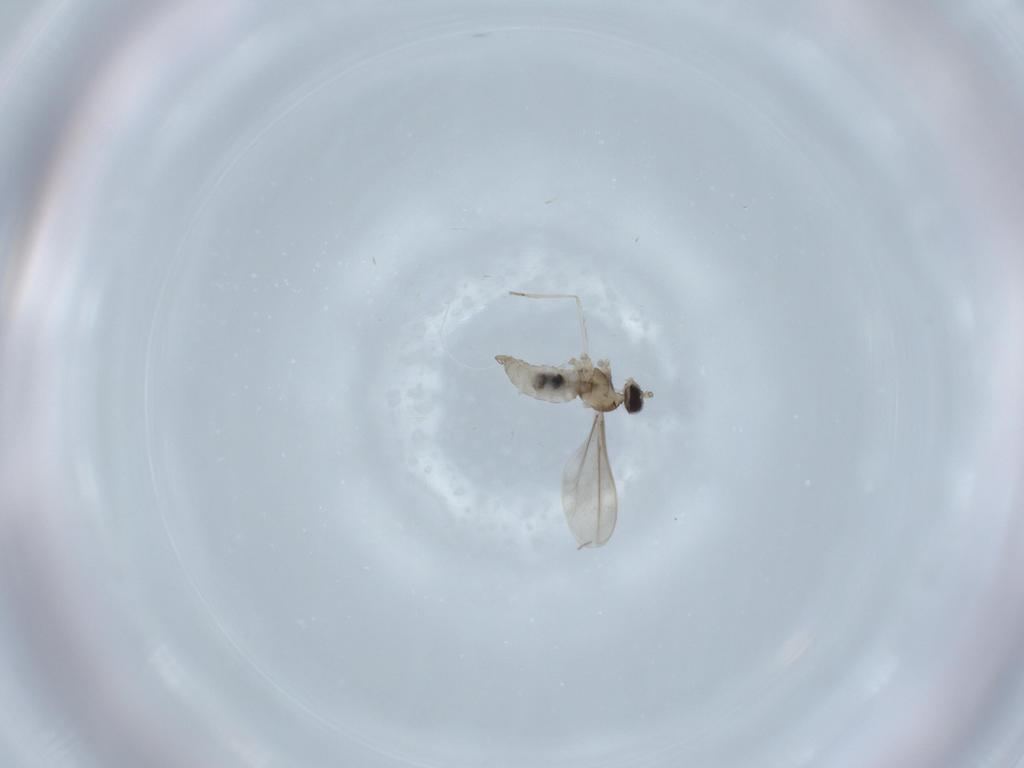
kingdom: Animalia
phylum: Arthropoda
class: Insecta
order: Diptera
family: Cecidomyiidae
